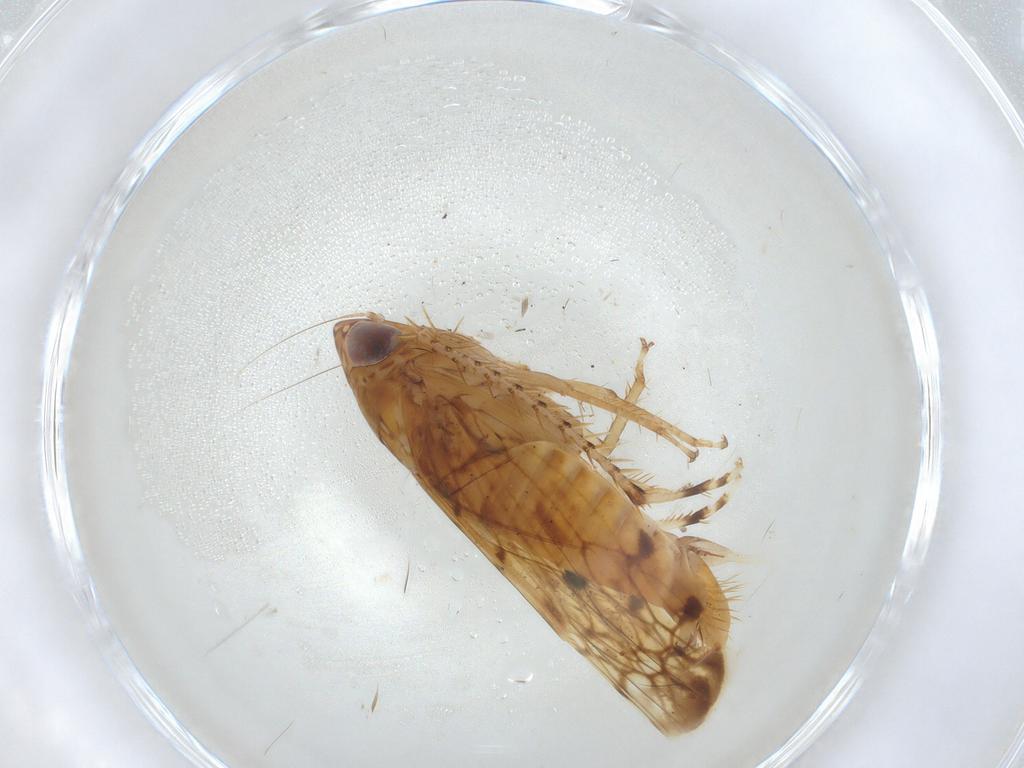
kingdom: Animalia
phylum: Arthropoda
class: Insecta
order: Hemiptera
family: Cicadellidae
